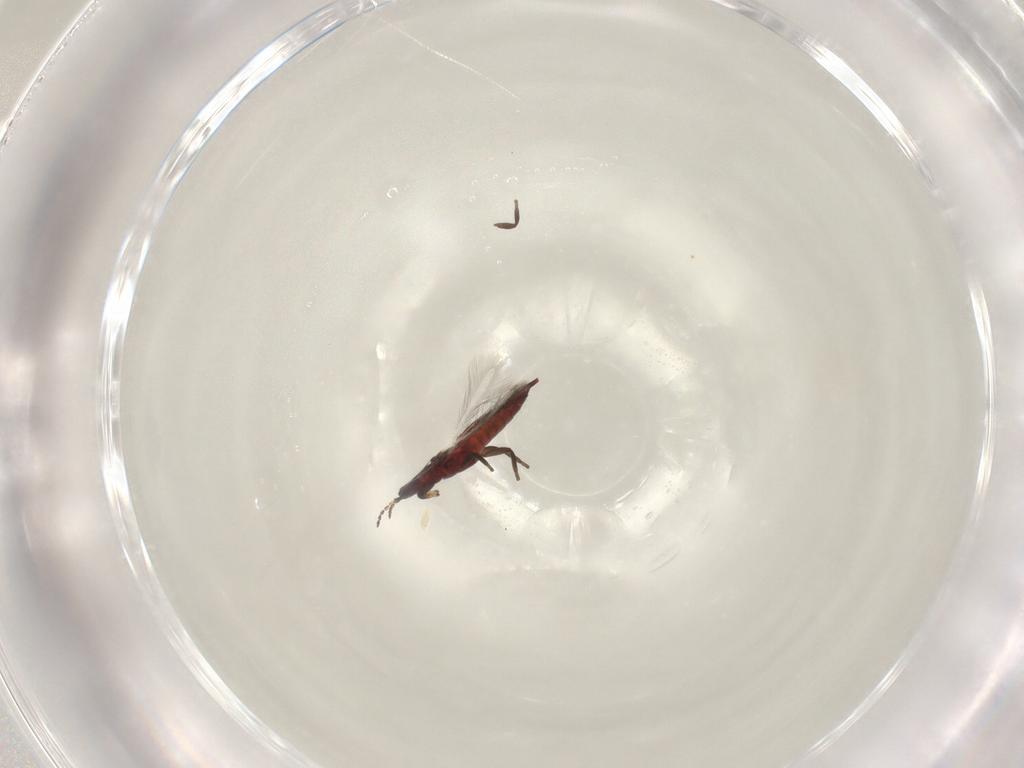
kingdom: Animalia
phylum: Arthropoda
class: Insecta
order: Thysanoptera
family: Phlaeothripidae
